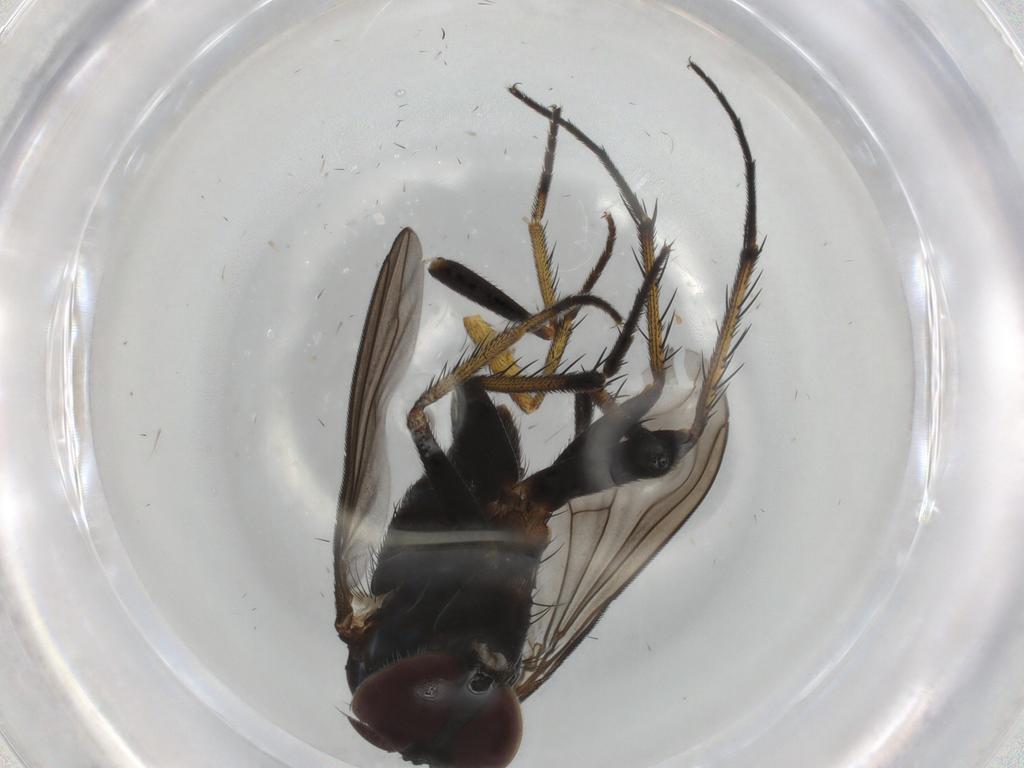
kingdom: Animalia
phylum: Arthropoda
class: Insecta
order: Diptera
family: Dolichopodidae
